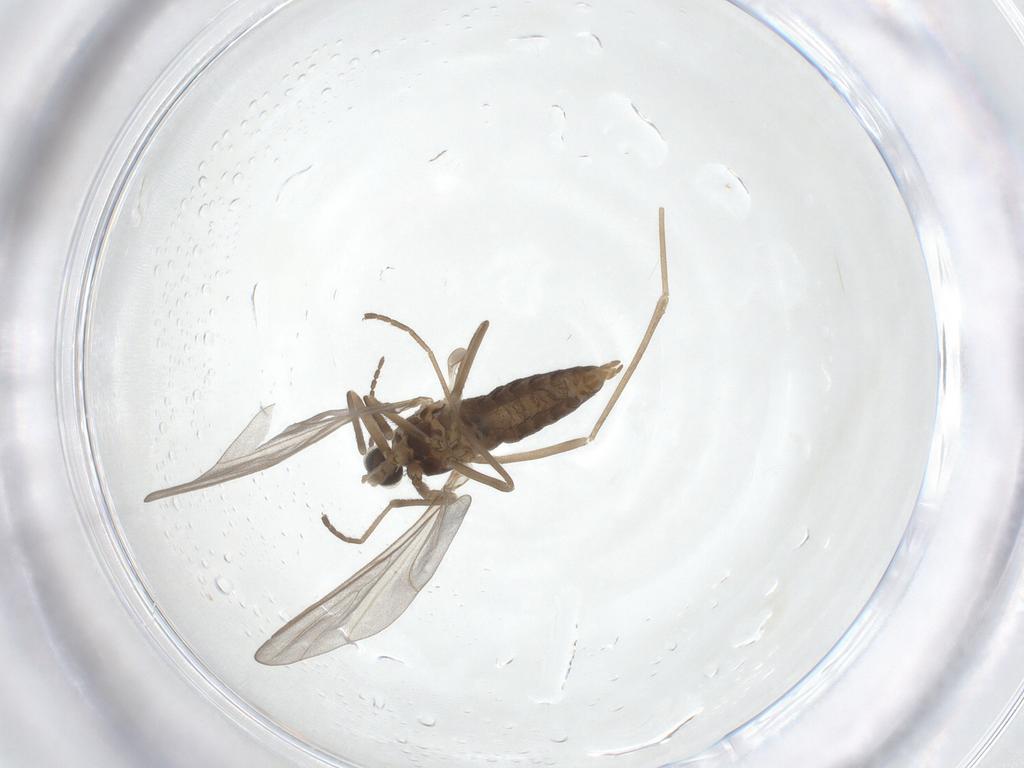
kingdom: Animalia
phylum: Arthropoda
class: Insecta
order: Diptera
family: Cecidomyiidae
